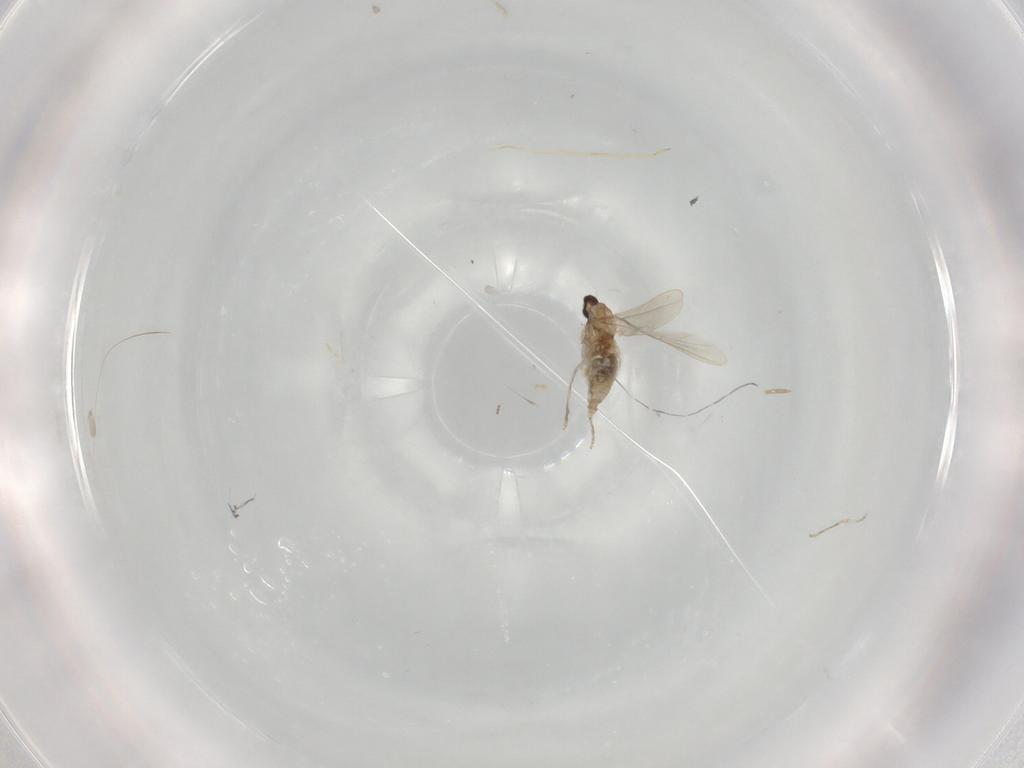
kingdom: Animalia
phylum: Arthropoda
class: Insecta
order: Diptera
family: Cecidomyiidae
